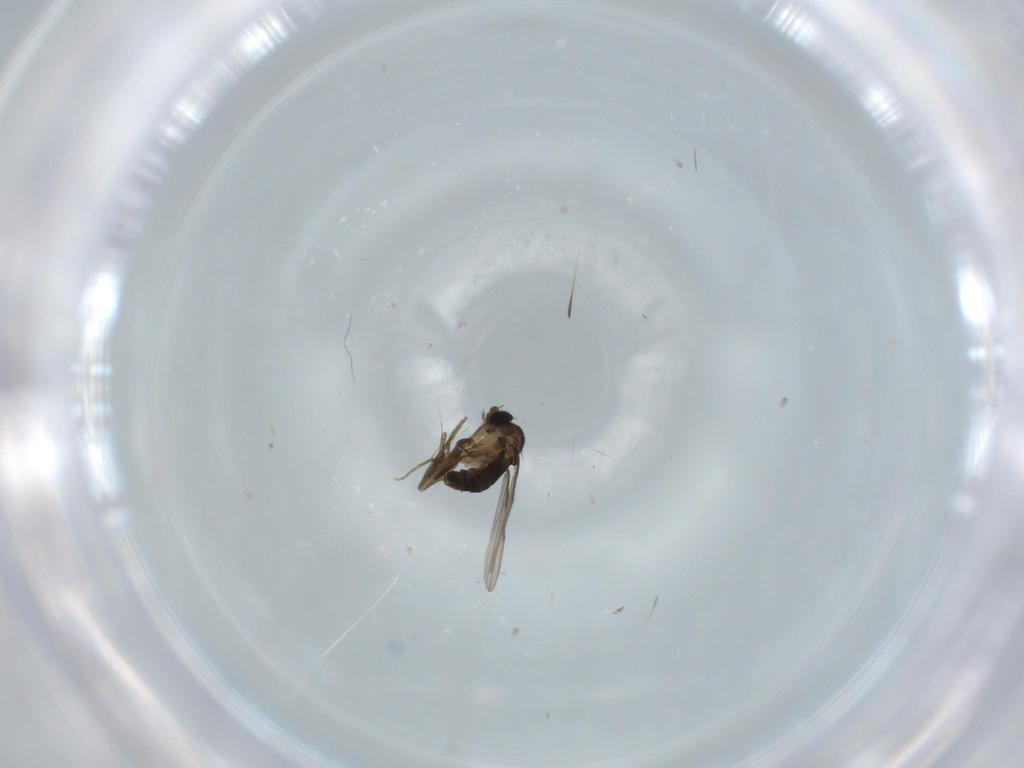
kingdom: Animalia
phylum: Arthropoda
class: Insecta
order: Diptera
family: Phoridae
